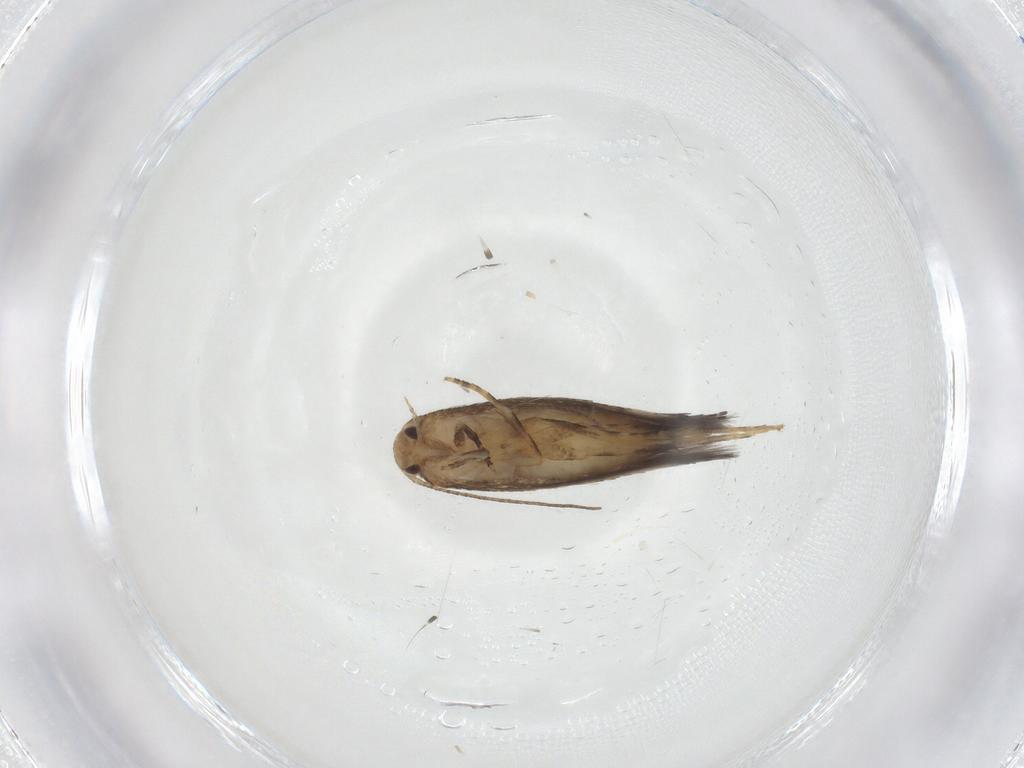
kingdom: Animalia
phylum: Arthropoda
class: Insecta
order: Lepidoptera
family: Elachistidae
